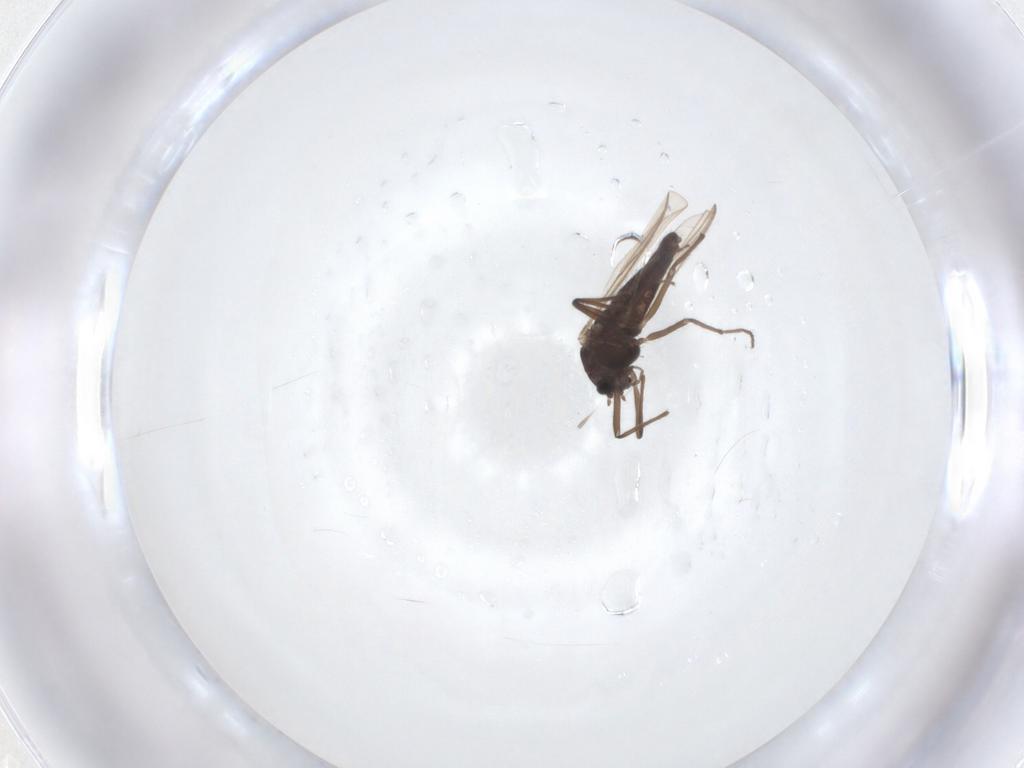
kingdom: Animalia
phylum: Arthropoda
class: Insecta
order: Diptera
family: Chironomidae
